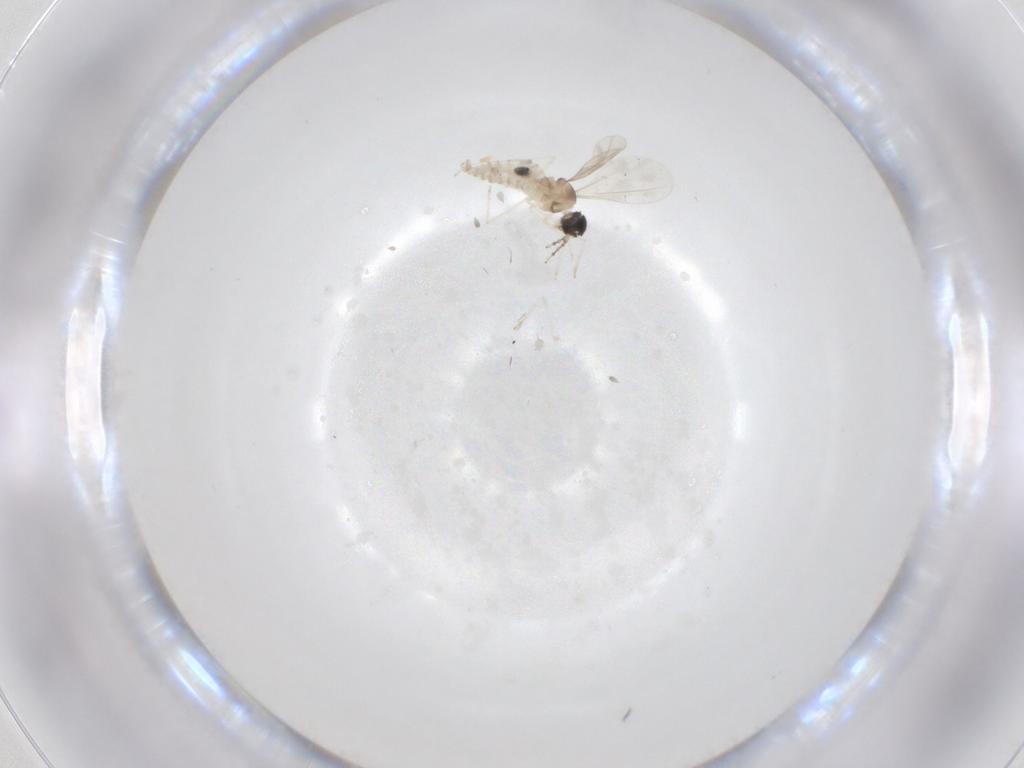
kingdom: Animalia
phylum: Arthropoda
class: Insecta
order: Diptera
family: Cecidomyiidae
